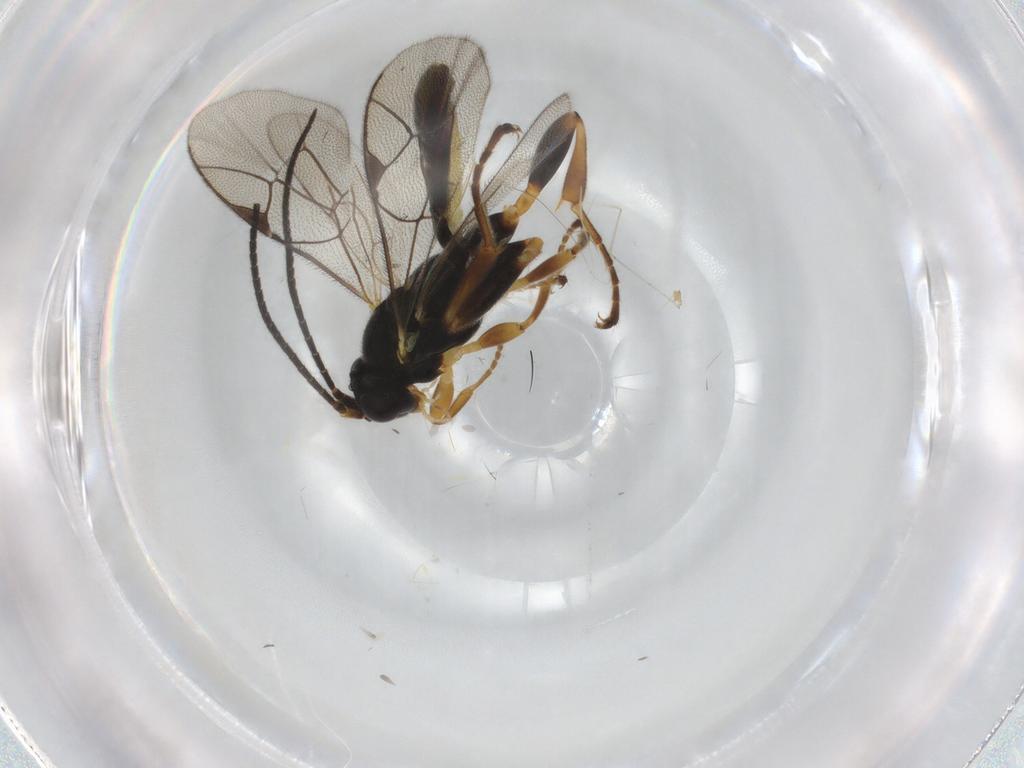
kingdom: Animalia
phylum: Arthropoda
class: Insecta
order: Hymenoptera
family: Ichneumonidae
